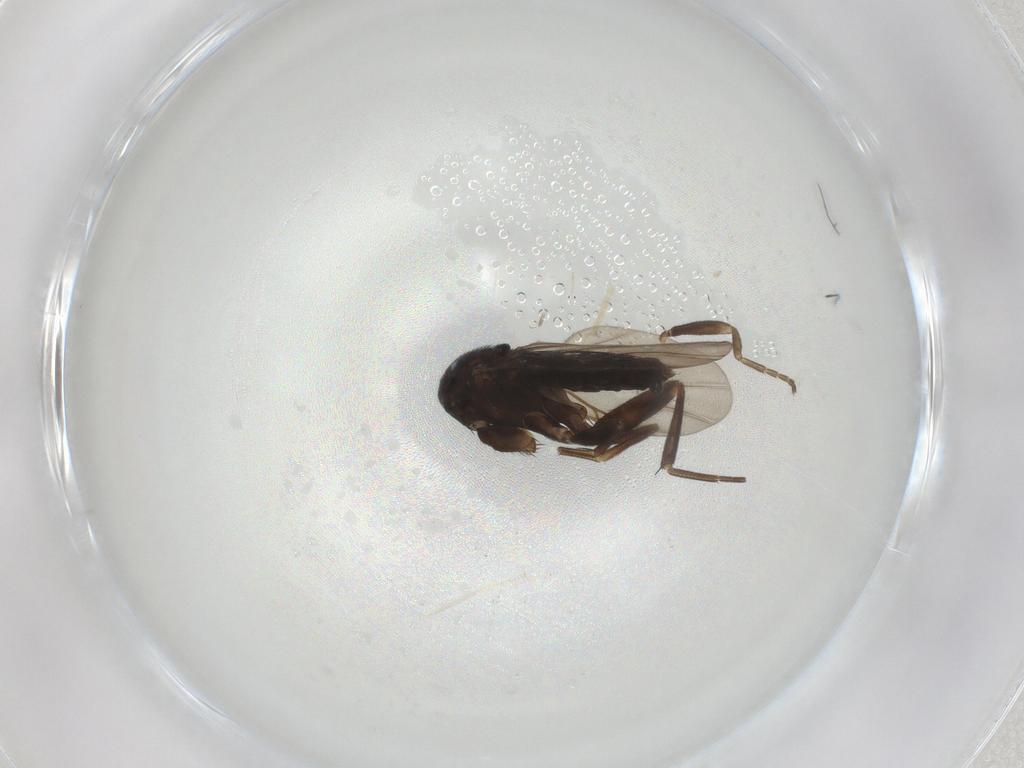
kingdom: Animalia
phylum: Arthropoda
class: Insecta
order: Diptera
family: Phoridae
